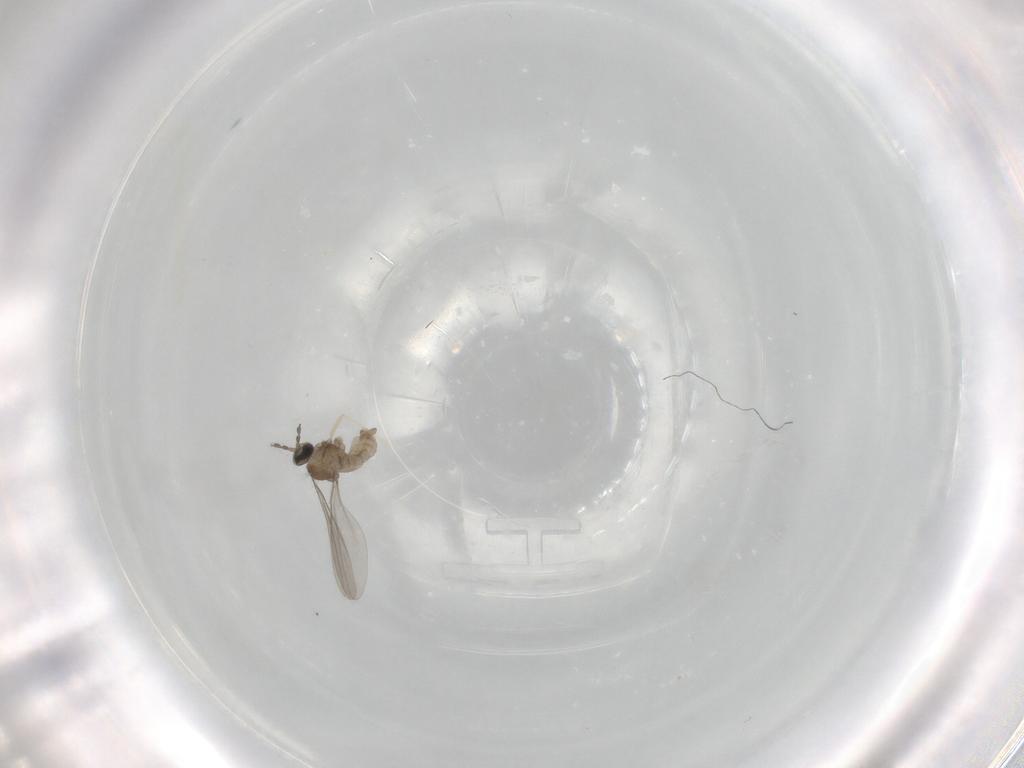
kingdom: Animalia
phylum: Arthropoda
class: Insecta
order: Diptera
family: Cecidomyiidae
